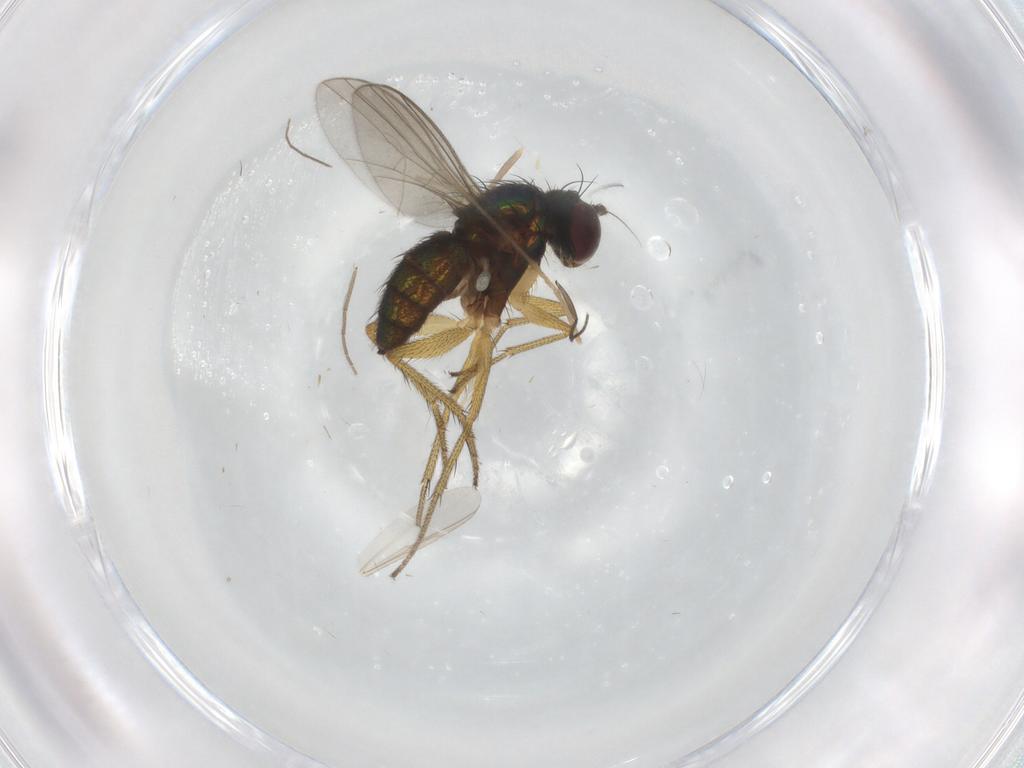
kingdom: Animalia
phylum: Arthropoda
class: Insecta
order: Diptera
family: Dolichopodidae
